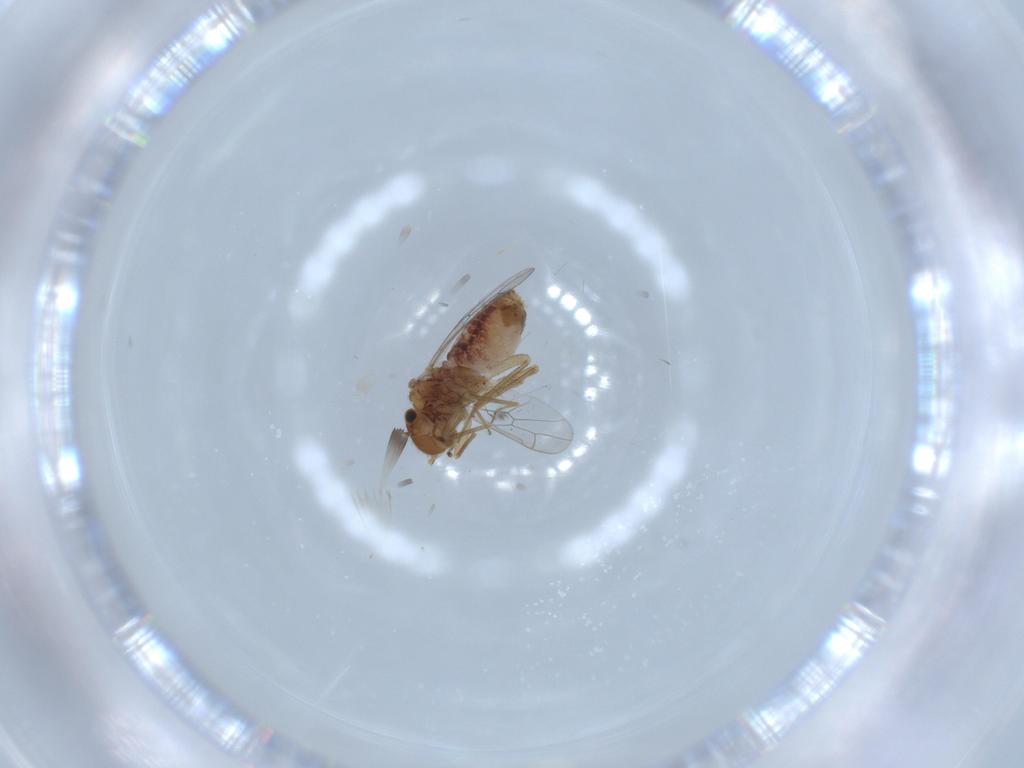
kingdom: Animalia
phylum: Arthropoda
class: Insecta
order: Psocodea
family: Ectopsocidae
